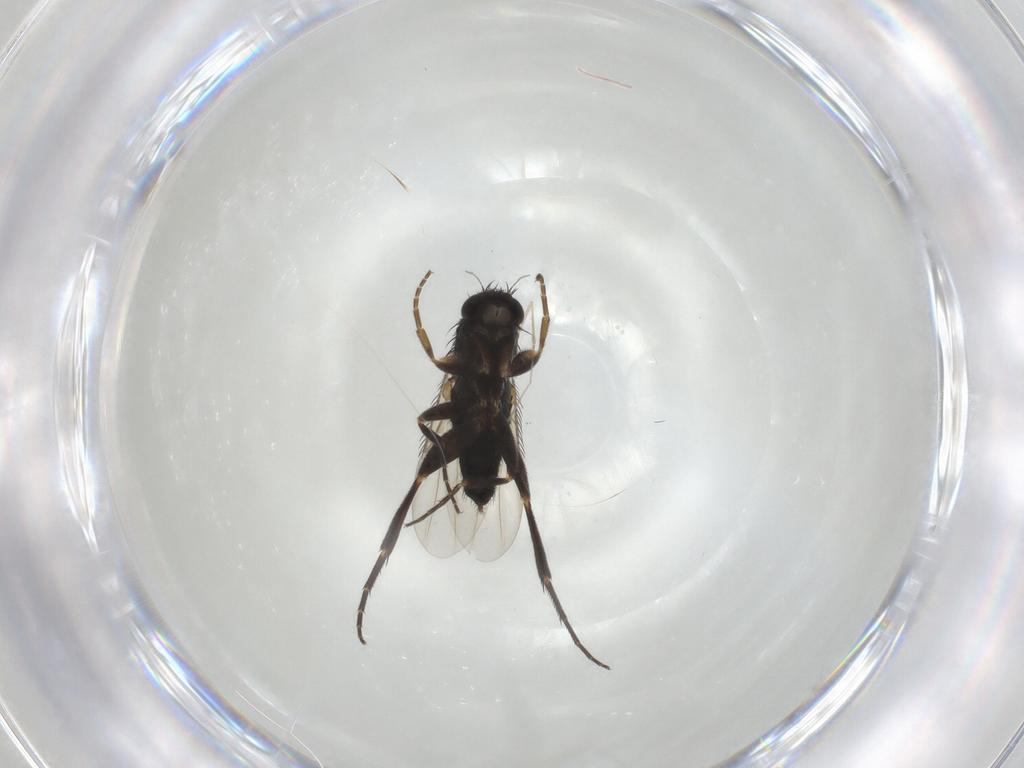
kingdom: Animalia
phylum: Arthropoda
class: Insecta
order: Diptera
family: Phoridae
